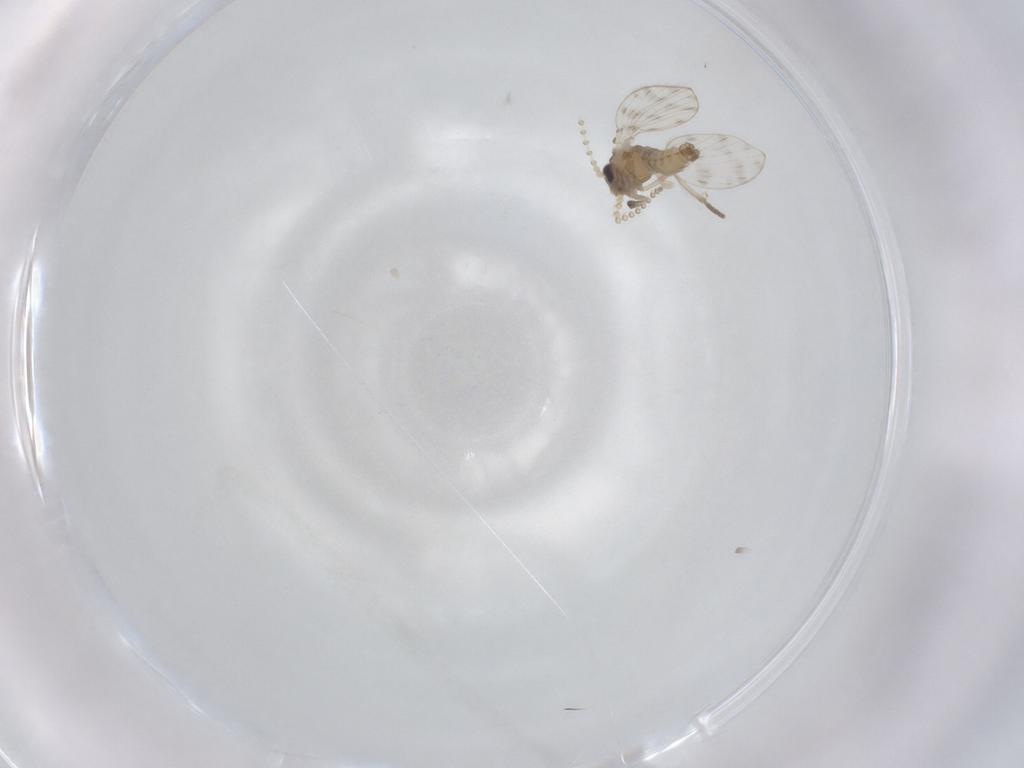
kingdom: Animalia
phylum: Arthropoda
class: Insecta
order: Diptera
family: Psychodidae
